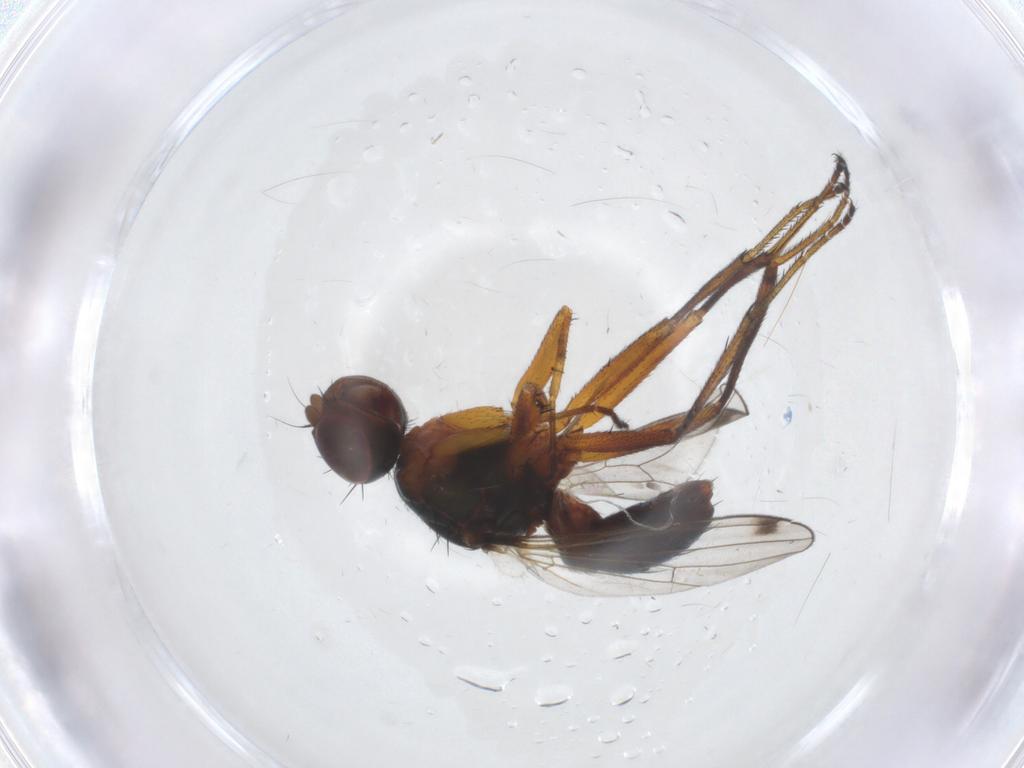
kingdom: Animalia
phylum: Arthropoda
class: Insecta
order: Diptera
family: Sepsidae
